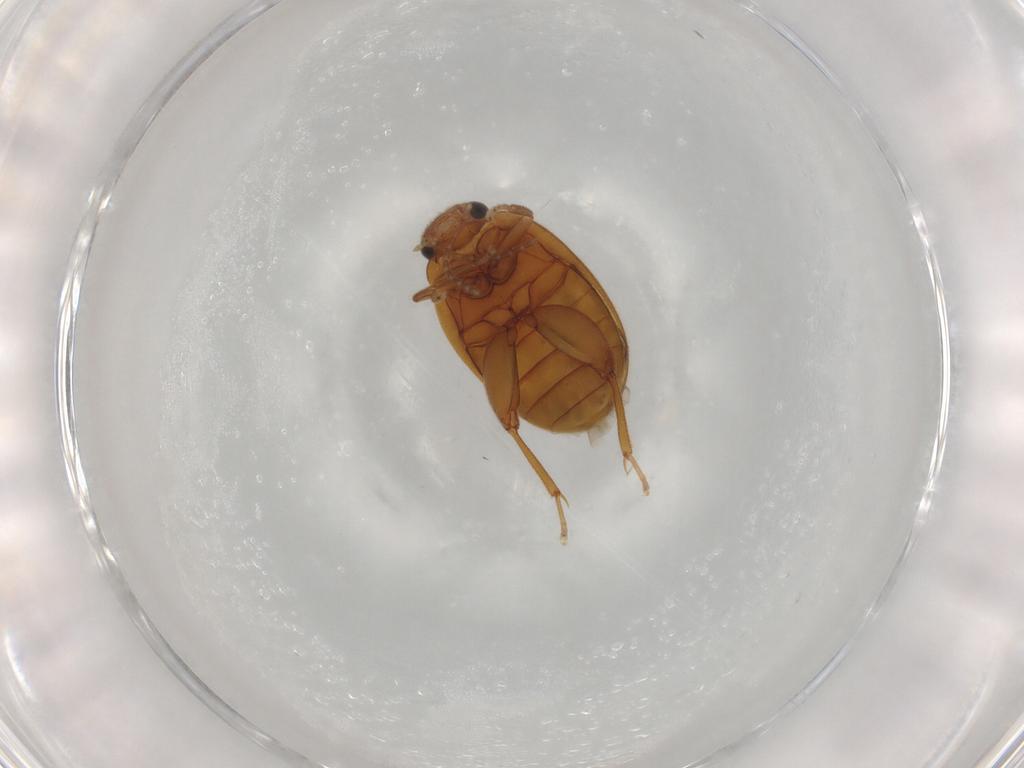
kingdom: Animalia
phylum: Arthropoda
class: Insecta
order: Coleoptera
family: Scirtidae
